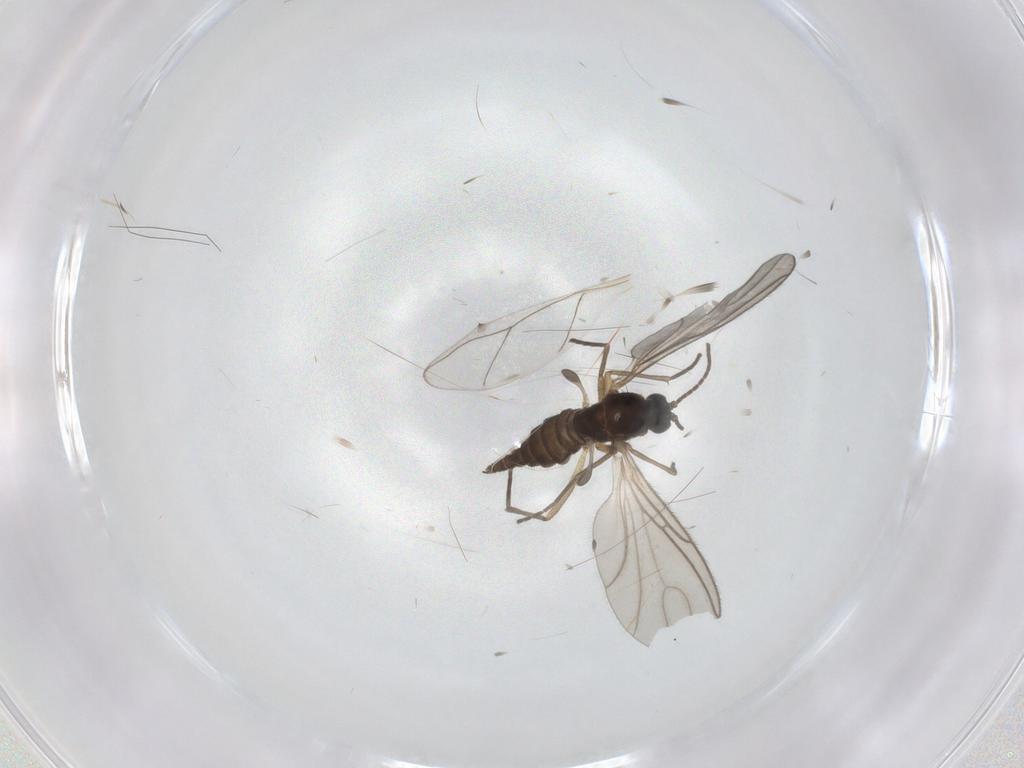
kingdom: Animalia
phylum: Arthropoda
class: Insecta
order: Diptera
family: Sciaridae
